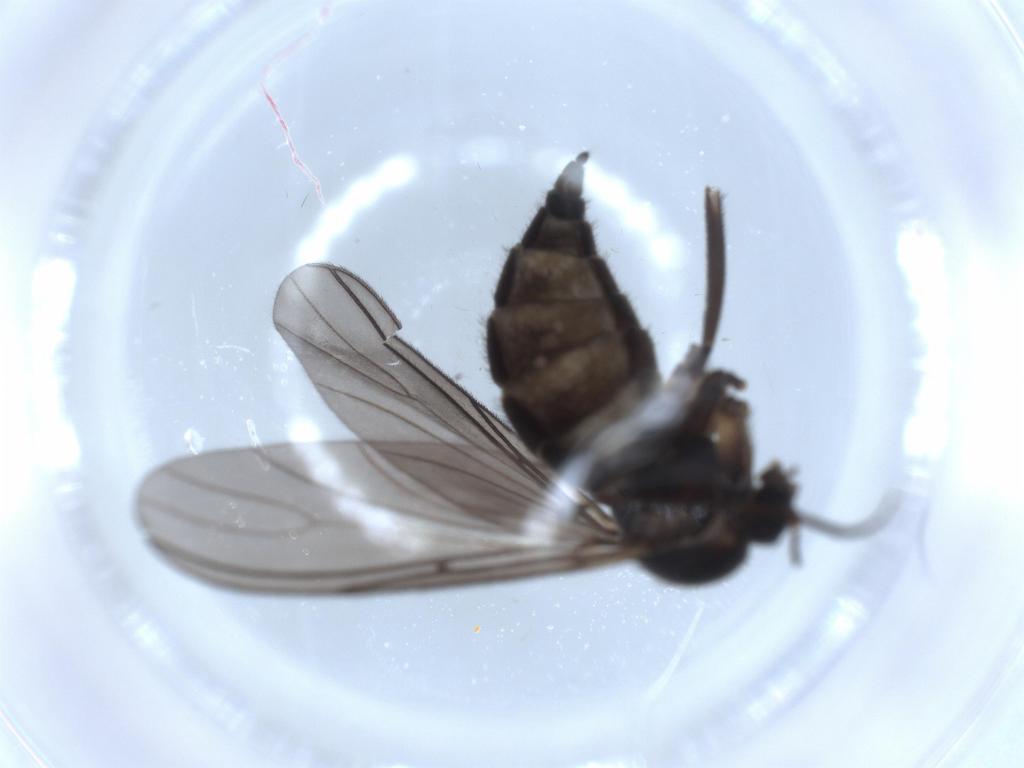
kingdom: Animalia
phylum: Arthropoda
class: Insecta
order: Diptera
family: Sciaridae
